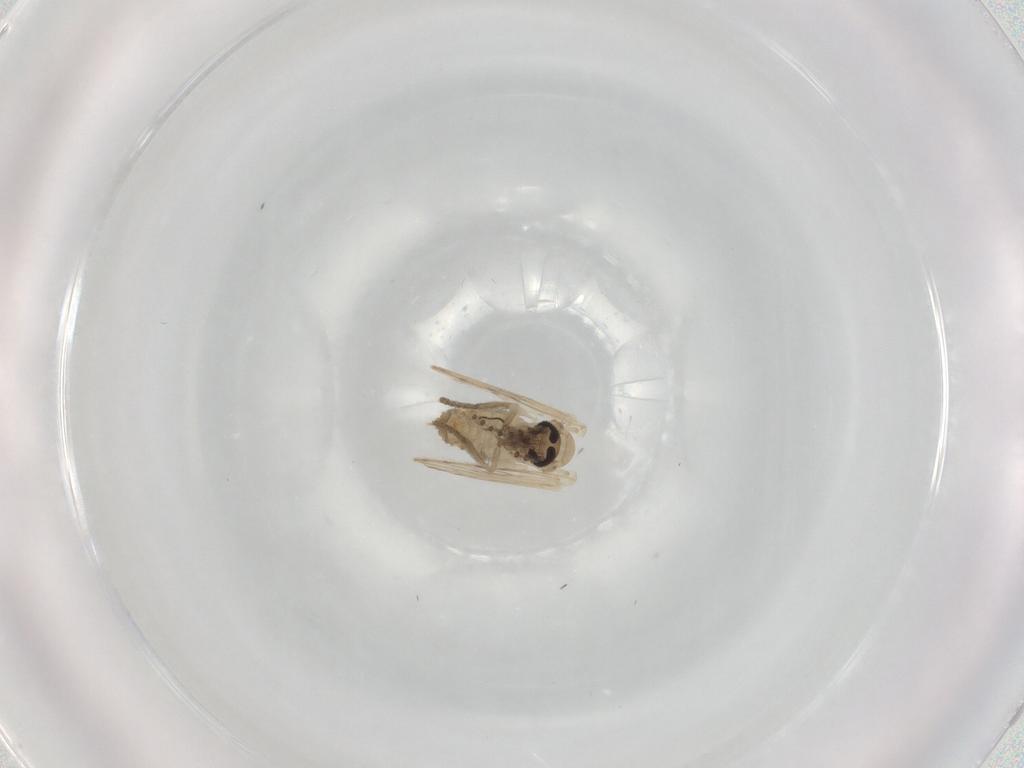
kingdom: Animalia
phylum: Arthropoda
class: Insecta
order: Diptera
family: Psychodidae
